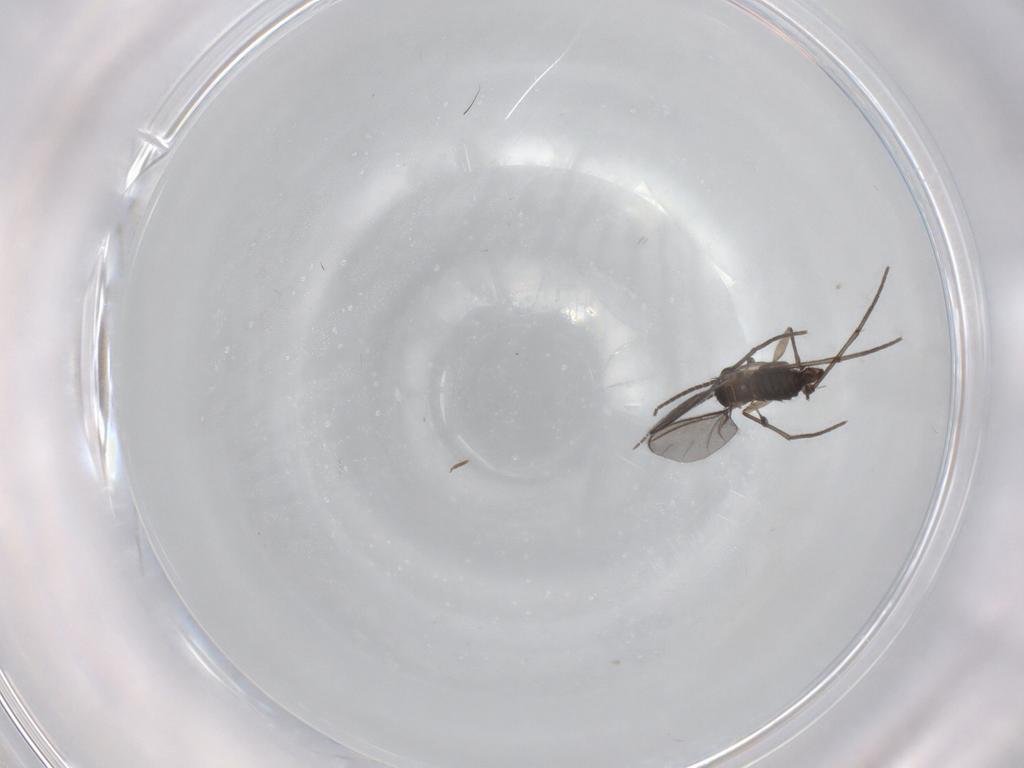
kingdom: Animalia
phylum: Arthropoda
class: Insecta
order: Diptera
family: Sciaridae
